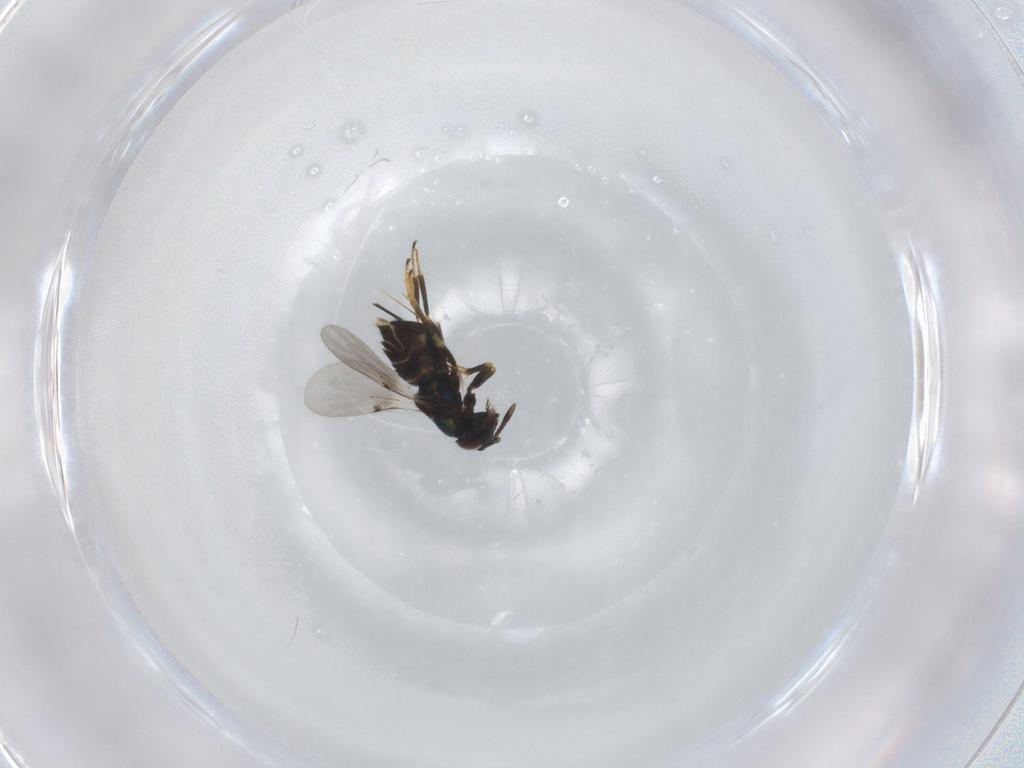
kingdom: Animalia
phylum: Arthropoda
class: Insecta
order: Hymenoptera
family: Encyrtidae
